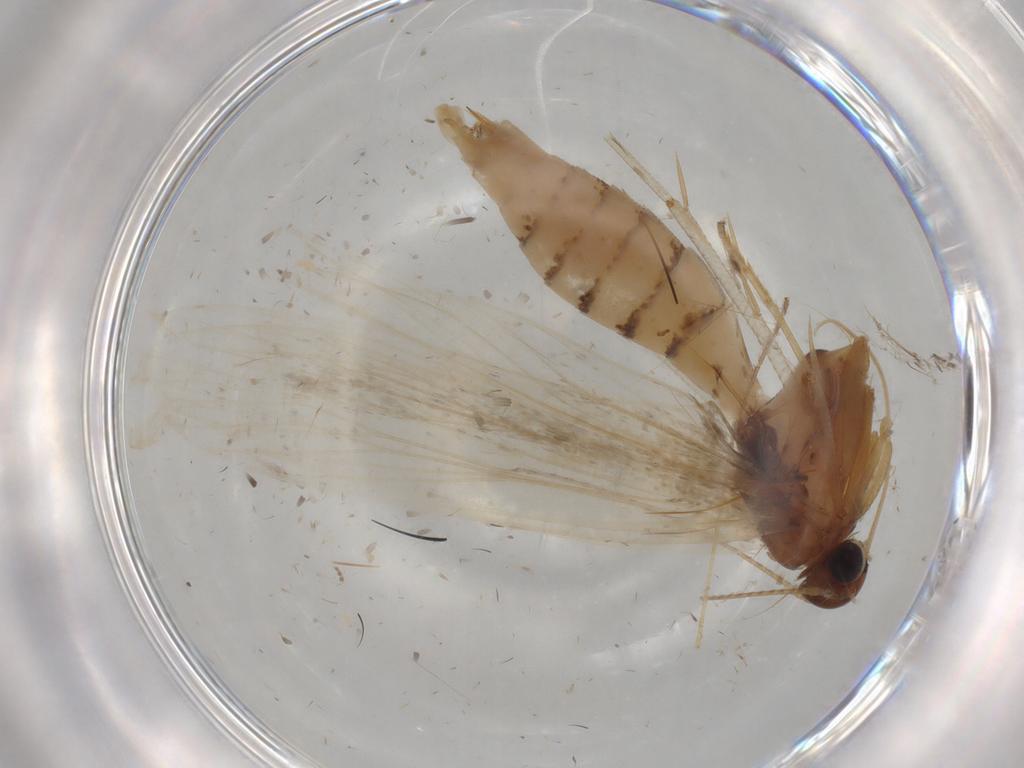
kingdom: Animalia
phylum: Arthropoda
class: Insecta
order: Lepidoptera
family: Gelechiidae
